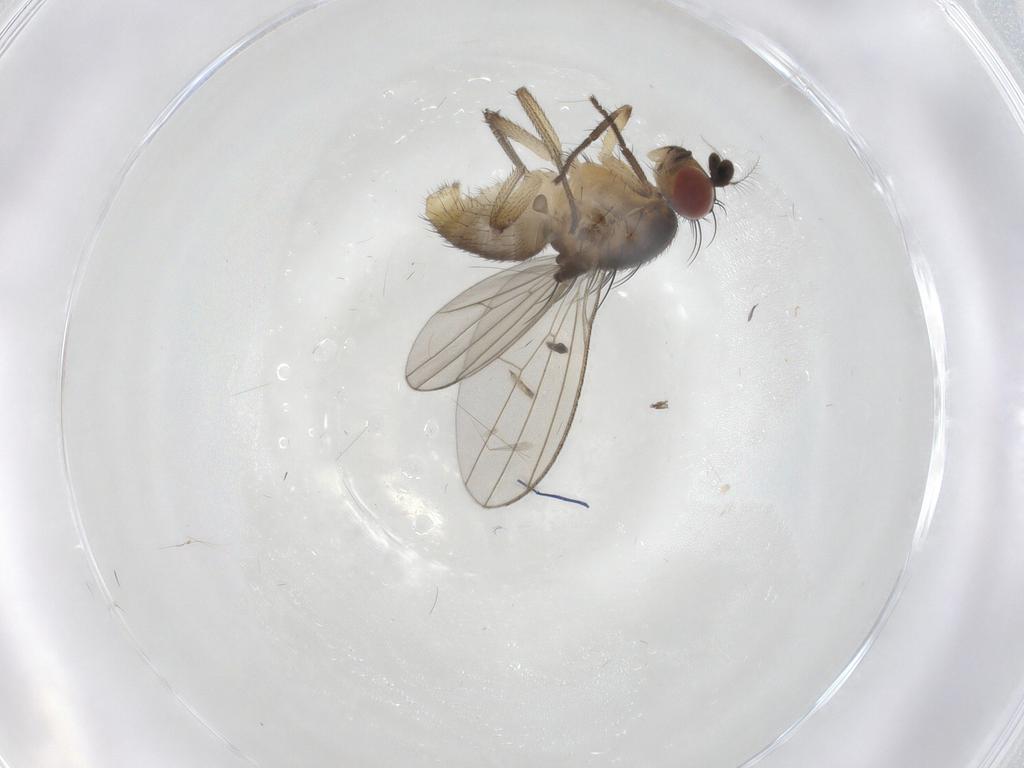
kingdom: Animalia
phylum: Arthropoda
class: Insecta
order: Diptera
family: Lauxaniidae
